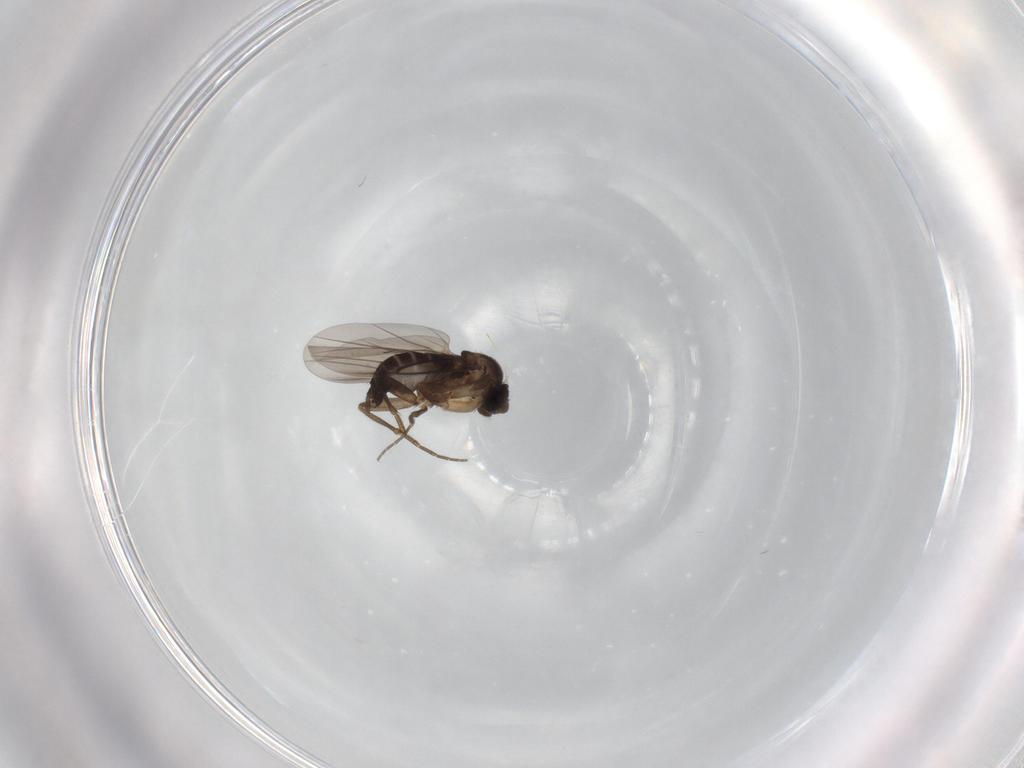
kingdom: Animalia
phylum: Arthropoda
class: Insecta
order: Diptera
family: Phoridae
